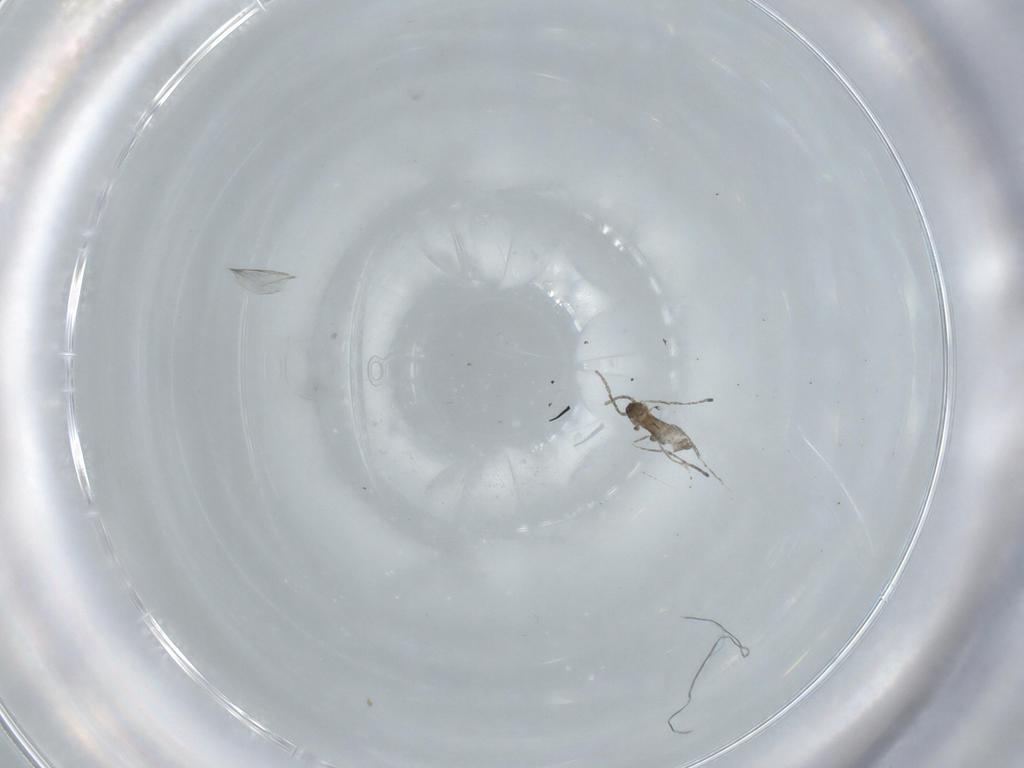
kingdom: Animalia
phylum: Arthropoda
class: Insecta
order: Diptera
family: Cecidomyiidae
